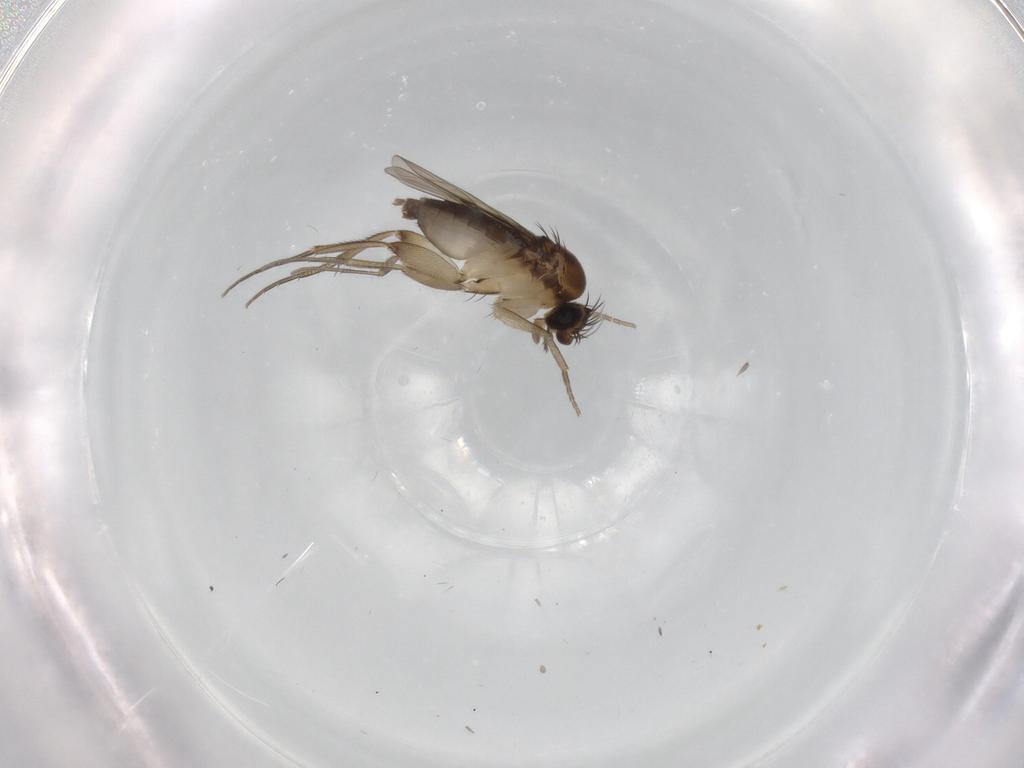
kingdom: Animalia
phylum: Arthropoda
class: Insecta
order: Diptera
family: Phoridae
